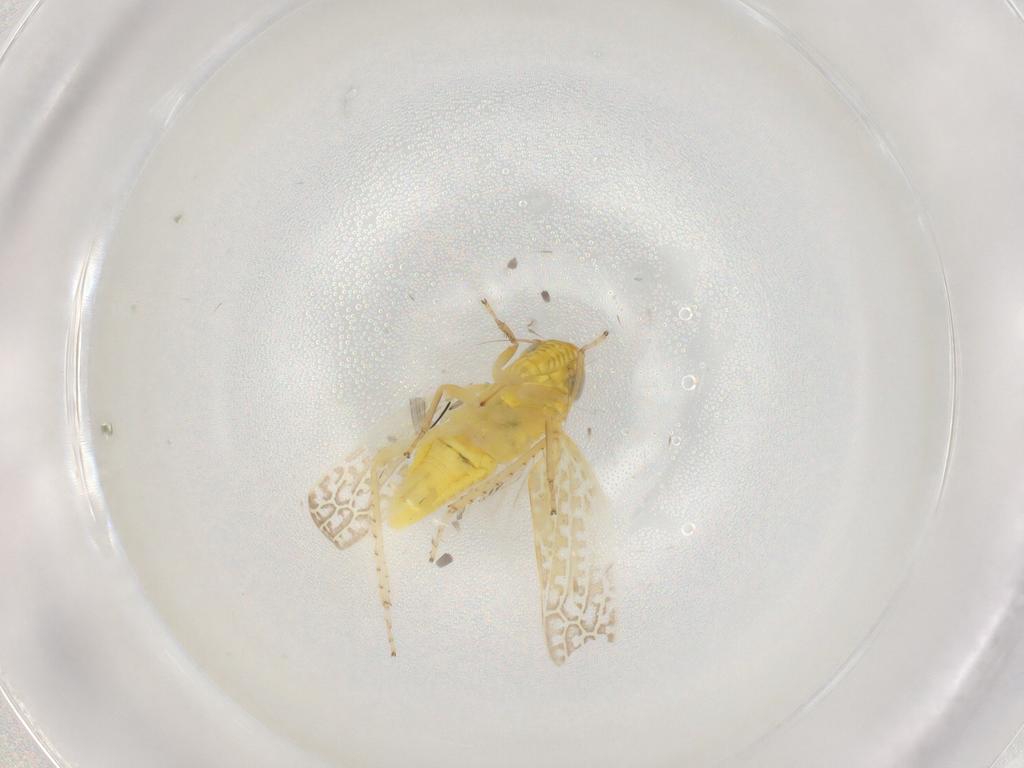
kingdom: Animalia
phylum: Arthropoda
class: Insecta
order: Hemiptera
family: Cicadellidae
